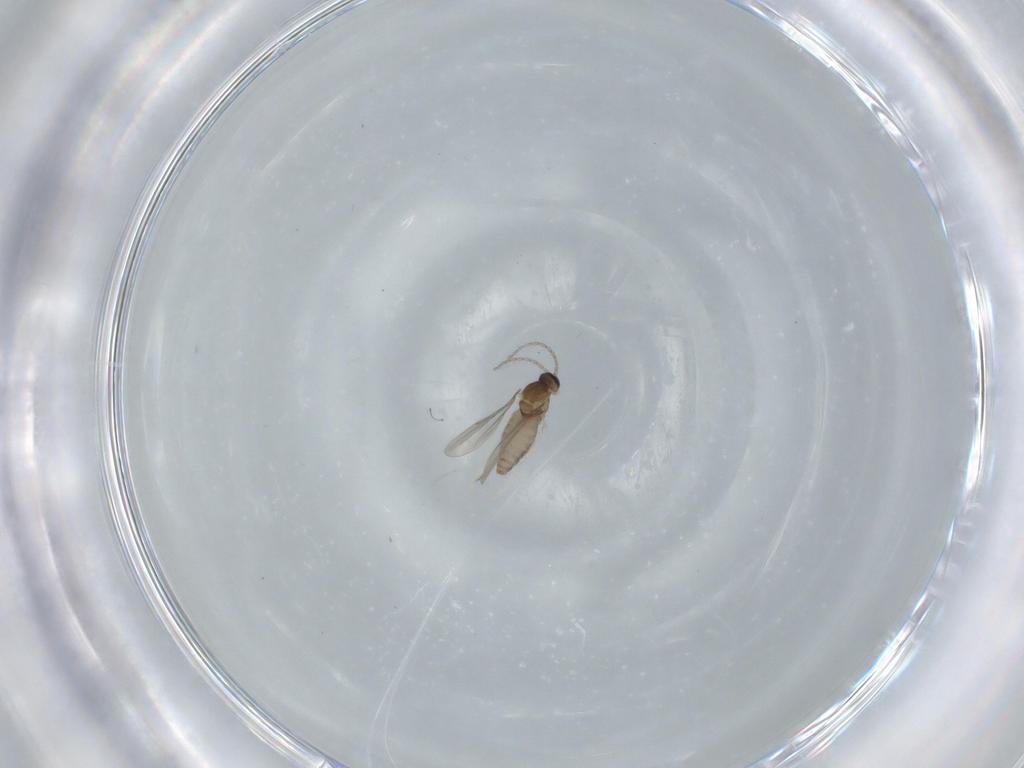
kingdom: Animalia
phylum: Arthropoda
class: Insecta
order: Diptera
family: Cecidomyiidae
